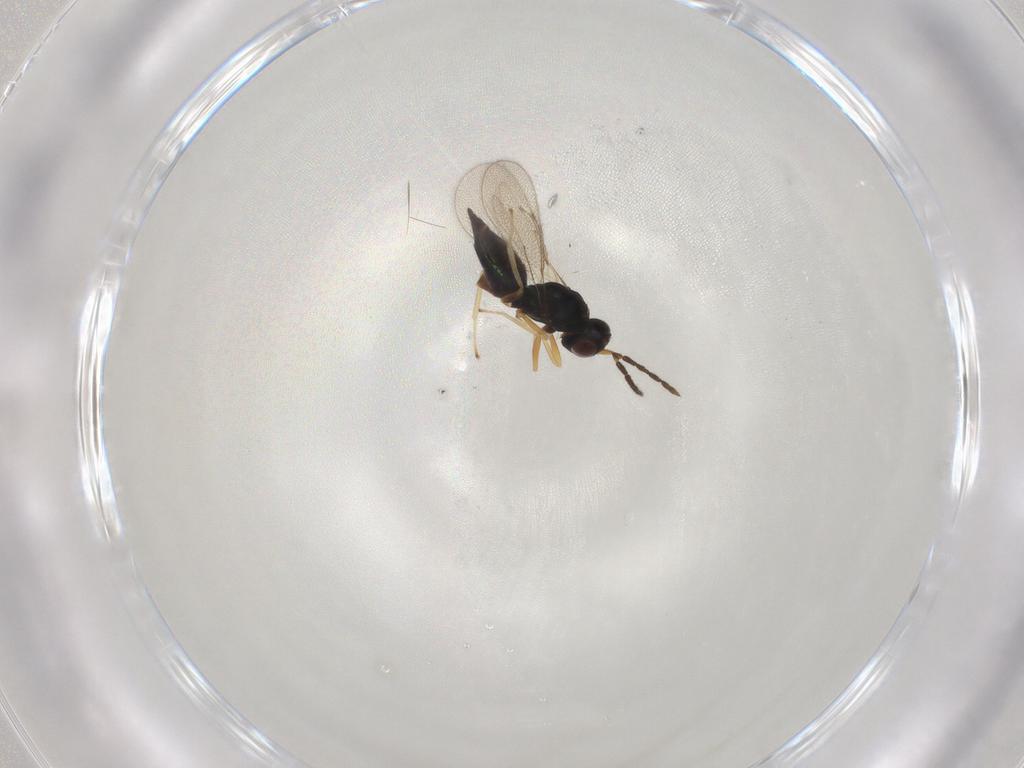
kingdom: Animalia
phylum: Arthropoda
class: Insecta
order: Hymenoptera
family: Eulophidae
